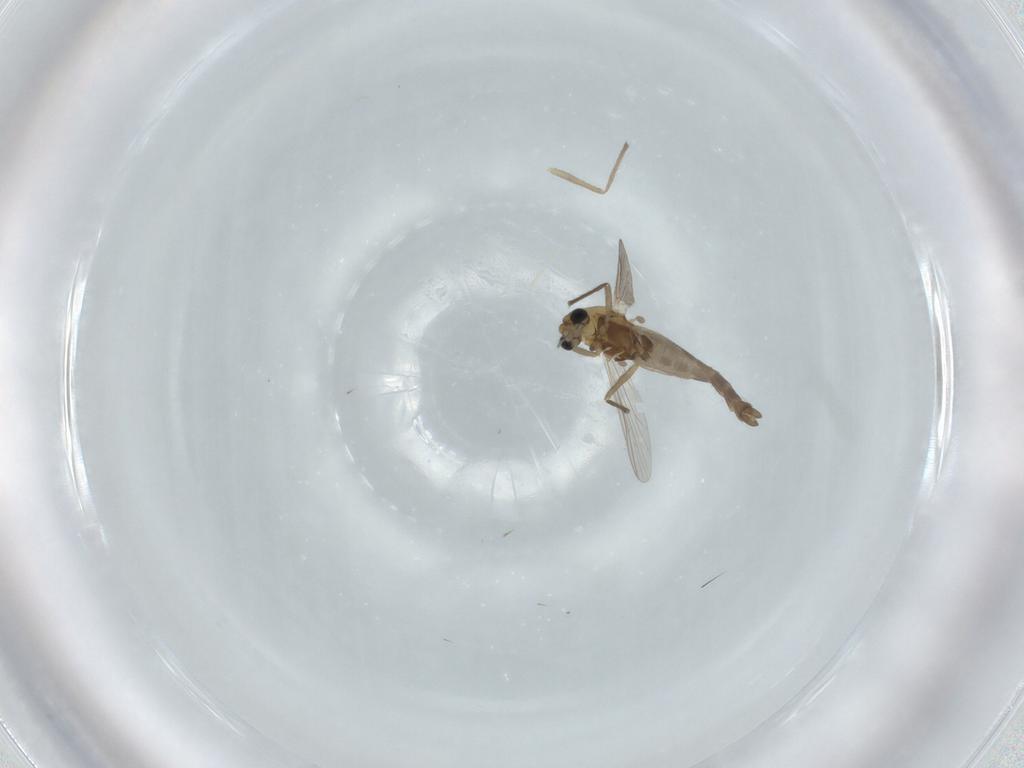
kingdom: Animalia
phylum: Arthropoda
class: Insecta
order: Diptera
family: Chironomidae
